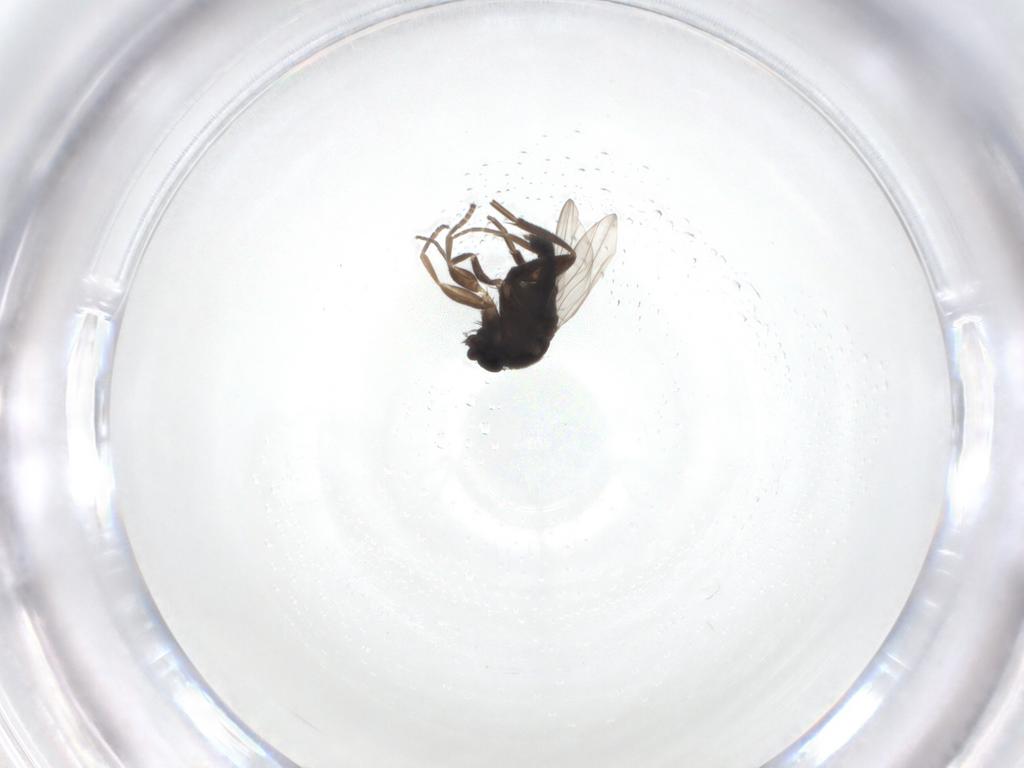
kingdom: Animalia
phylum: Arthropoda
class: Insecta
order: Diptera
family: Phoridae
